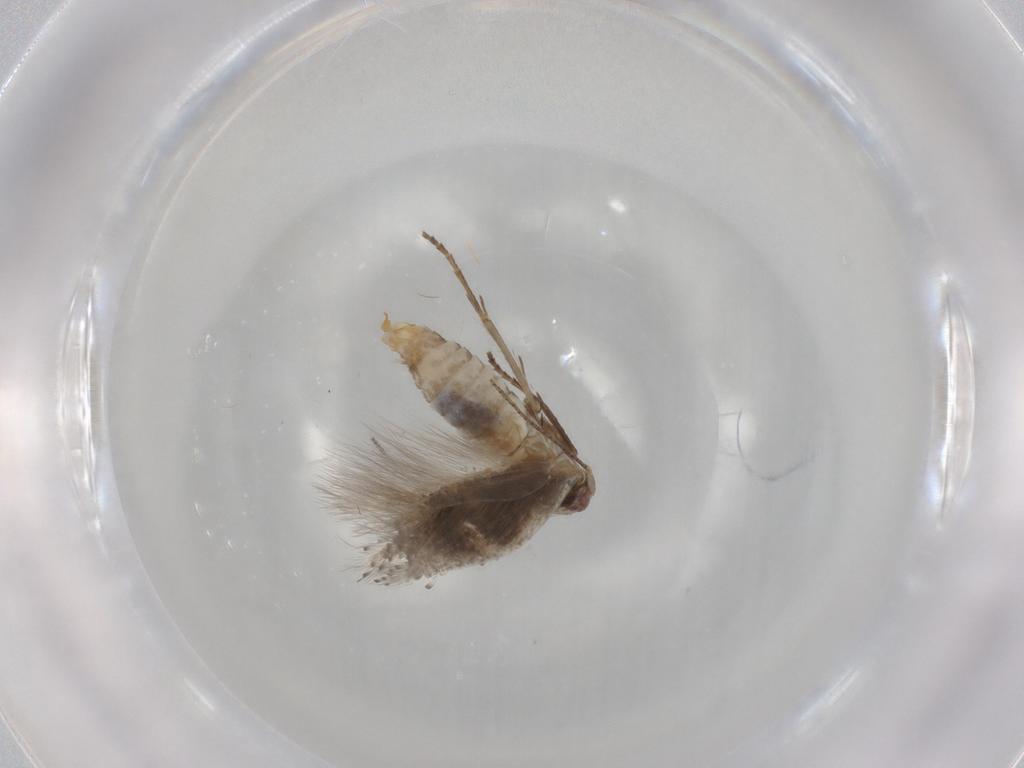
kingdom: Animalia
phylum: Arthropoda
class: Insecta
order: Lepidoptera
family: Bucculatricidae
